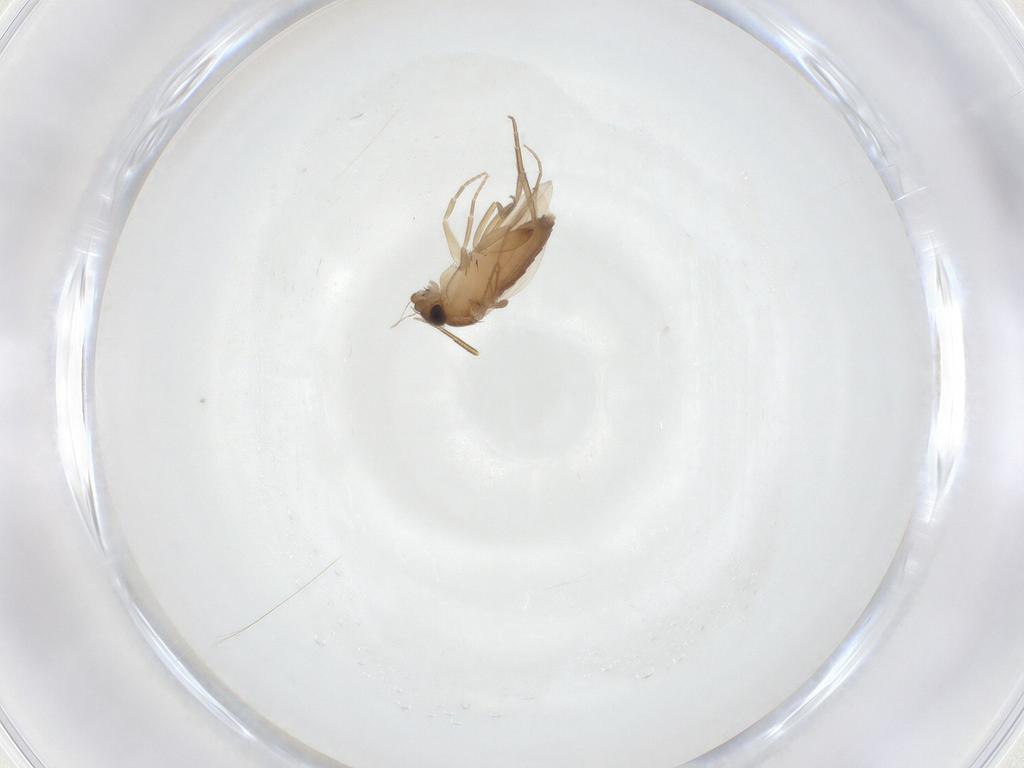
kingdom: Animalia
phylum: Arthropoda
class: Insecta
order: Diptera
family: Phoridae
